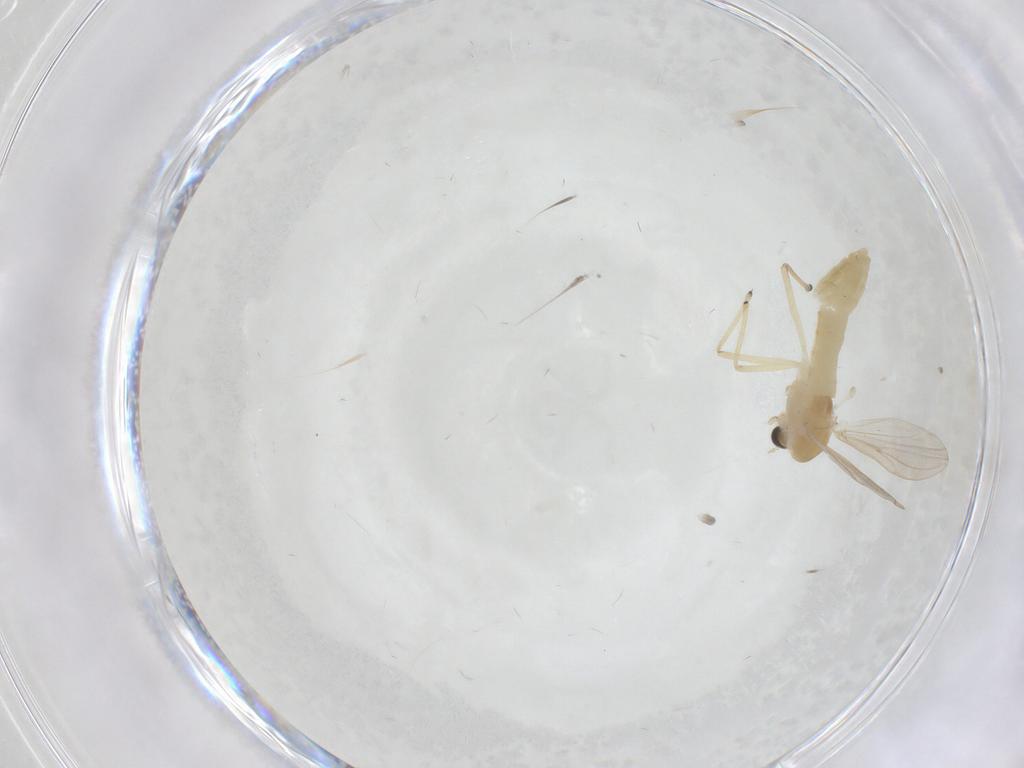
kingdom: Animalia
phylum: Arthropoda
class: Insecta
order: Diptera
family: Chironomidae
